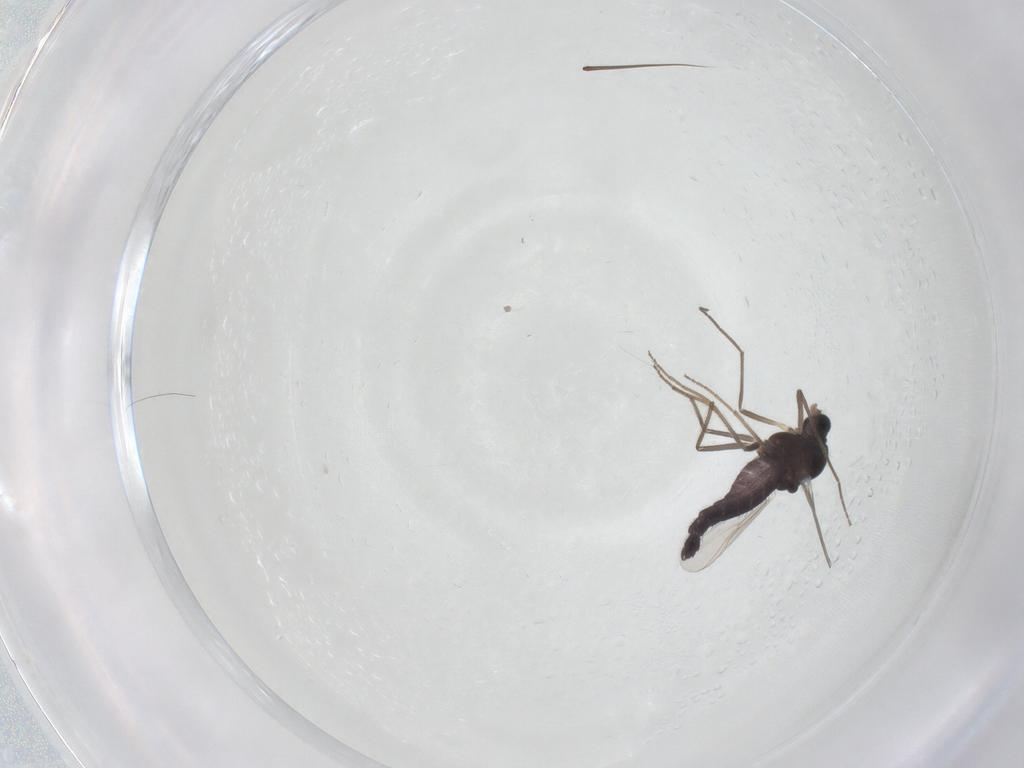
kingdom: Animalia
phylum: Arthropoda
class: Insecta
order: Diptera
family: Chironomidae
